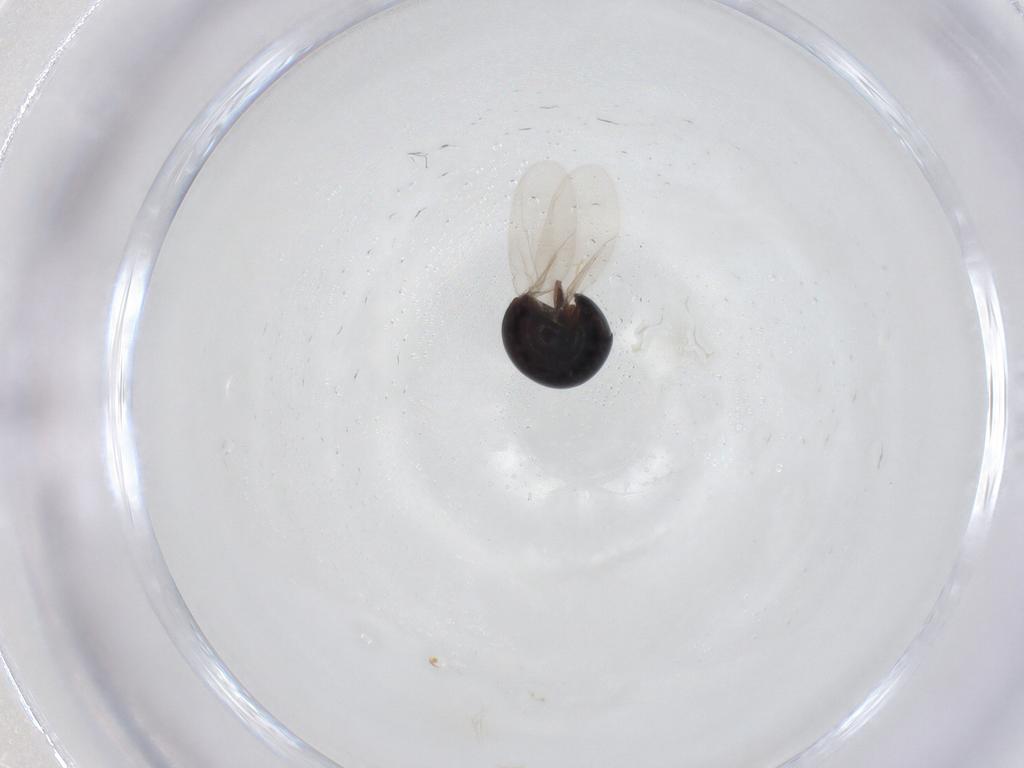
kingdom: Animalia
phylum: Arthropoda
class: Insecta
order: Coleoptera
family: Cybocephalidae
